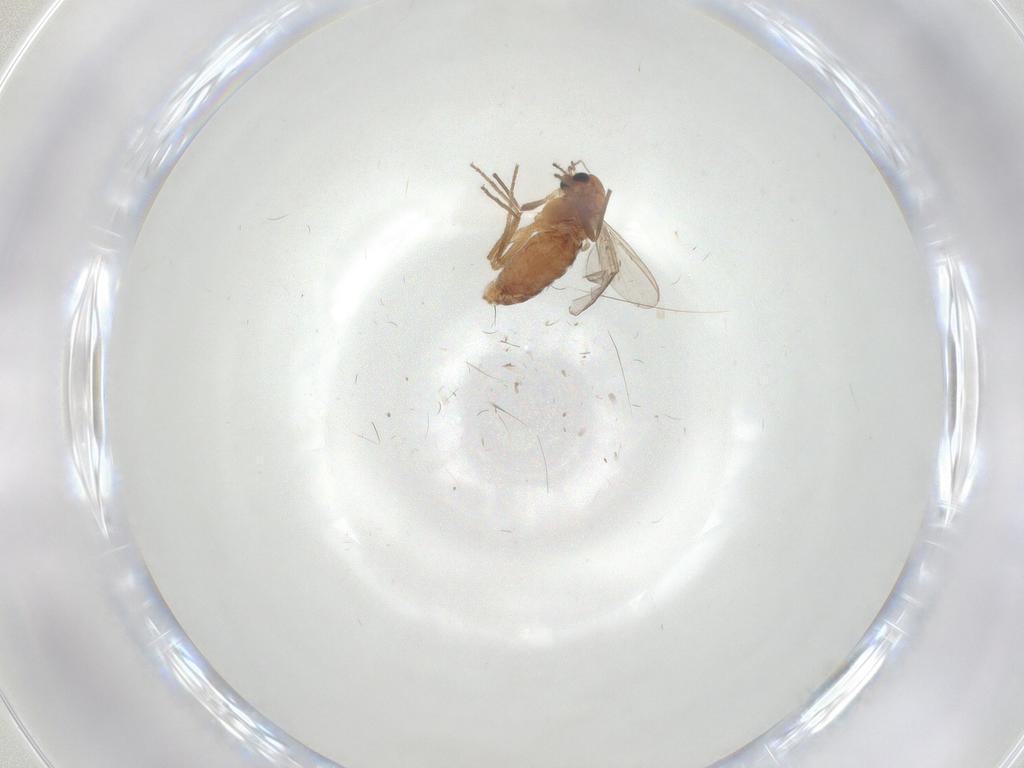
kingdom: Animalia
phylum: Arthropoda
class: Insecta
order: Diptera
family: Chironomidae
